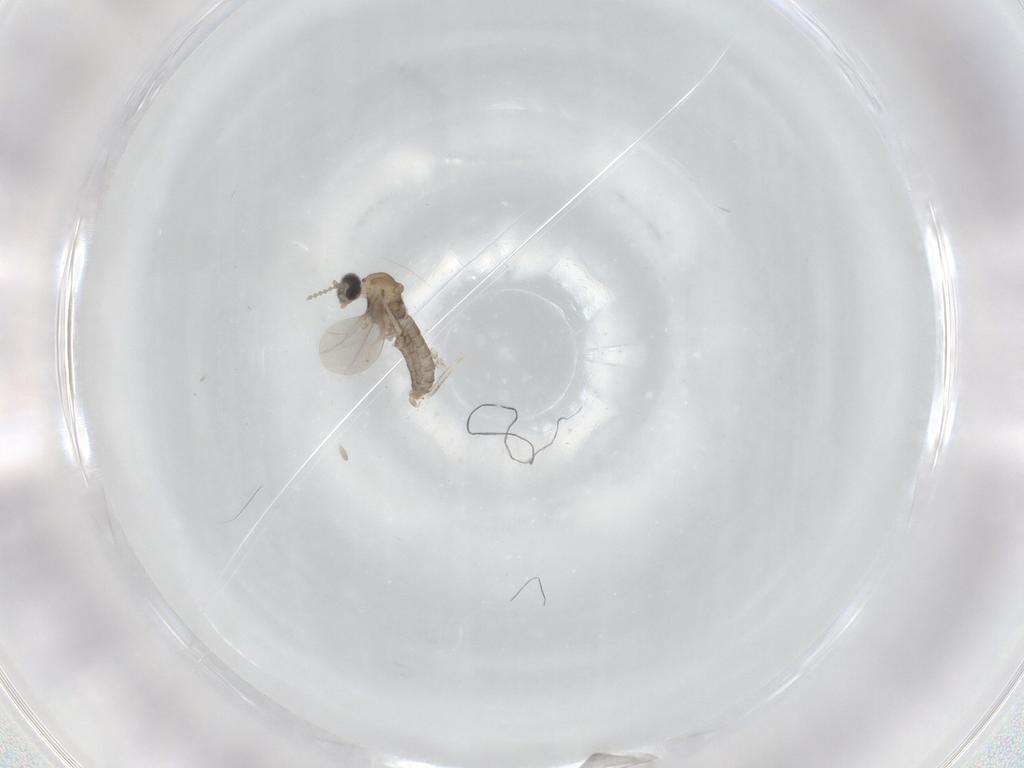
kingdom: Animalia
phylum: Arthropoda
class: Insecta
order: Diptera
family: Cecidomyiidae
